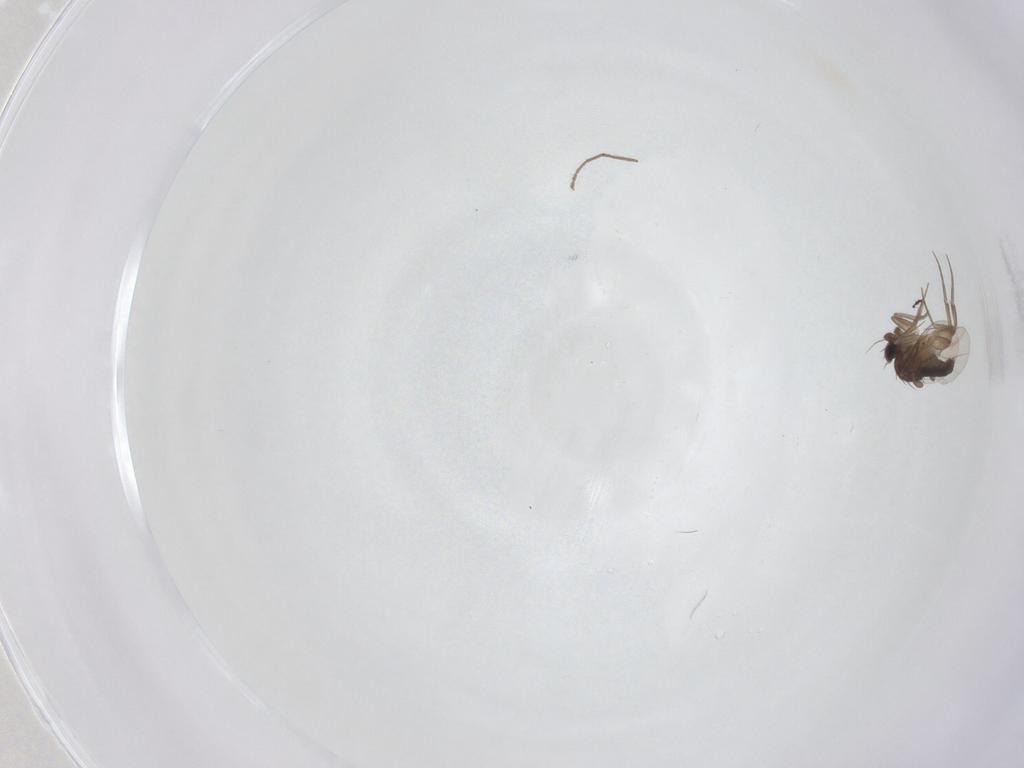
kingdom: Animalia
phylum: Arthropoda
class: Insecta
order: Diptera
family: Phoridae
